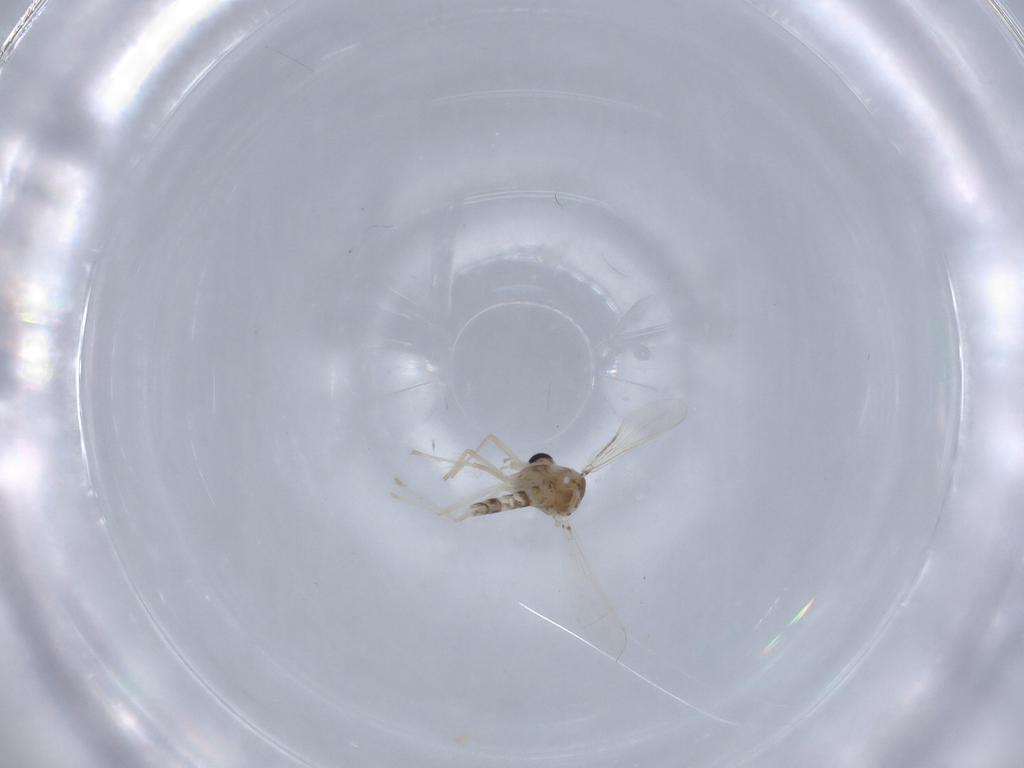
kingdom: Animalia
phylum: Arthropoda
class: Insecta
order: Diptera
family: Chironomidae
